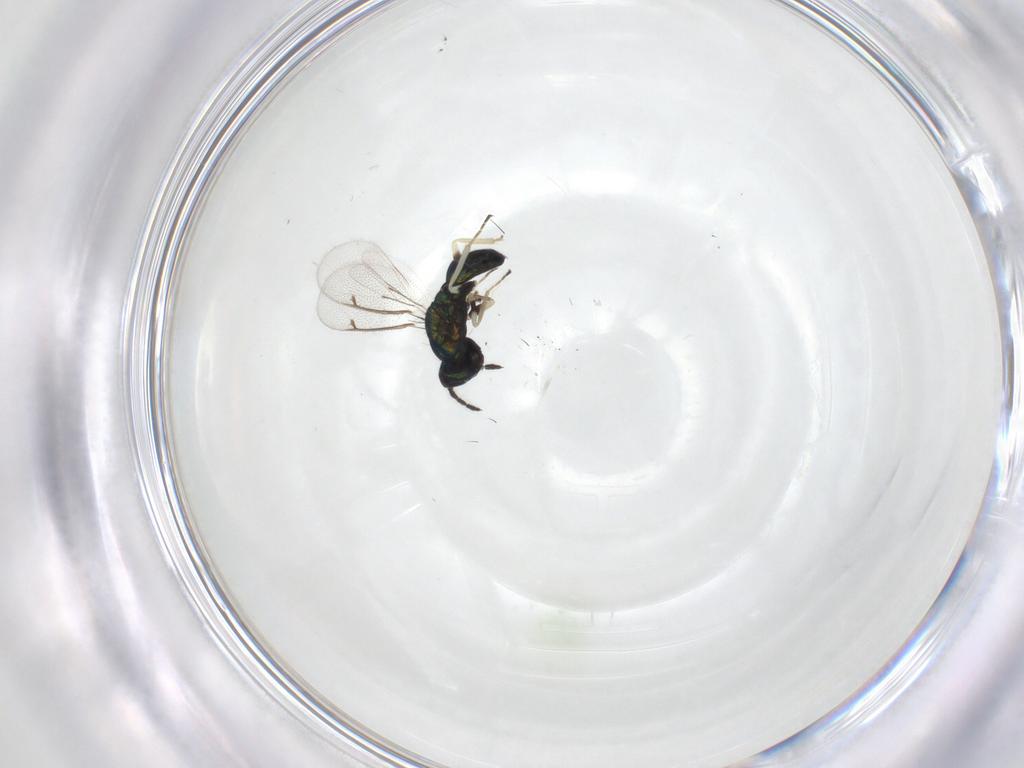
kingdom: Animalia
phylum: Arthropoda
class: Insecta
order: Hymenoptera
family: Eulophidae
